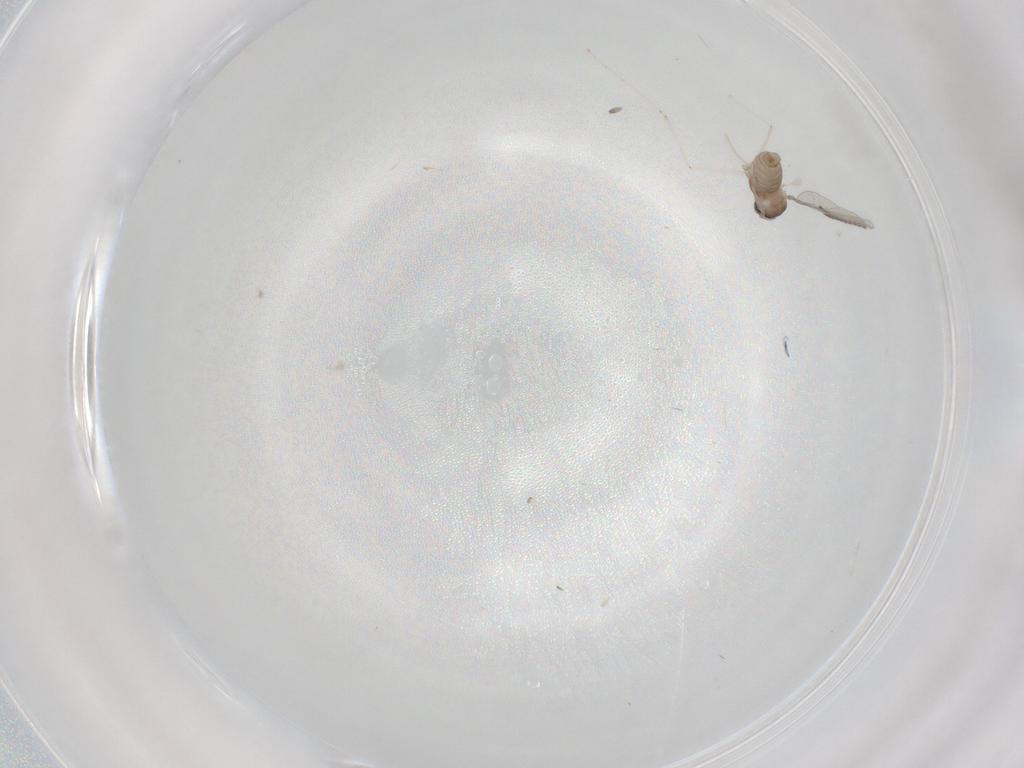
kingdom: Animalia
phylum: Arthropoda
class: Insecta
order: Diptera
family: Sciaridae
